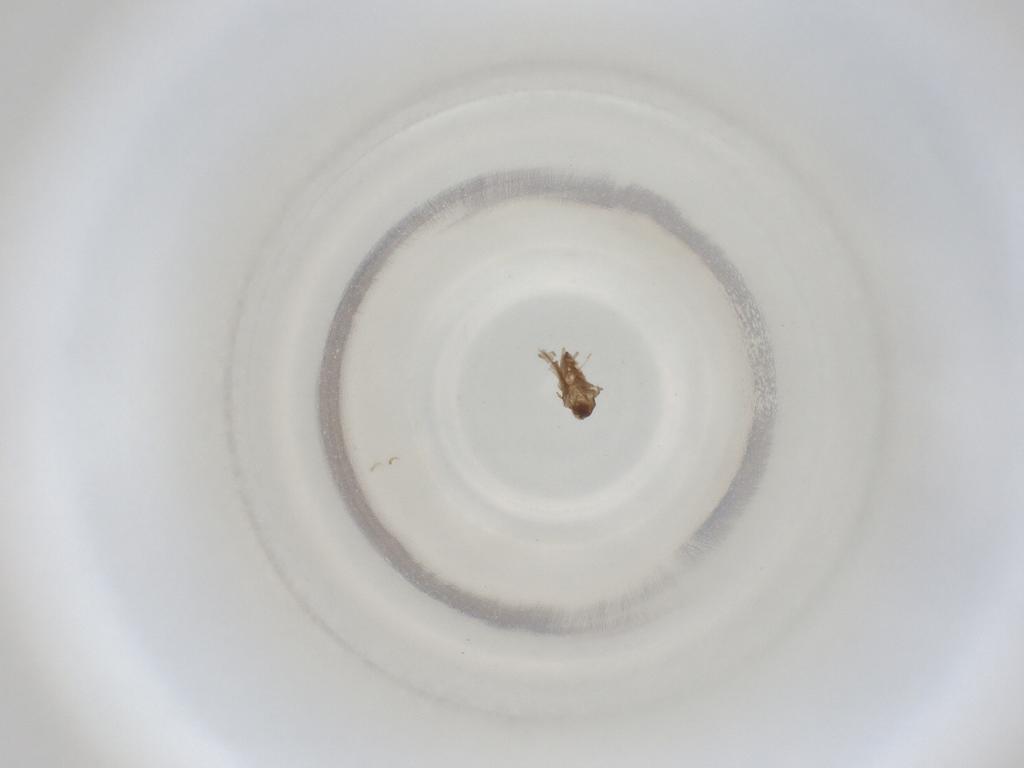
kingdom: Animalia
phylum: Arthropoda
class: Insecta
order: Diptera
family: Cecidomyiidae
